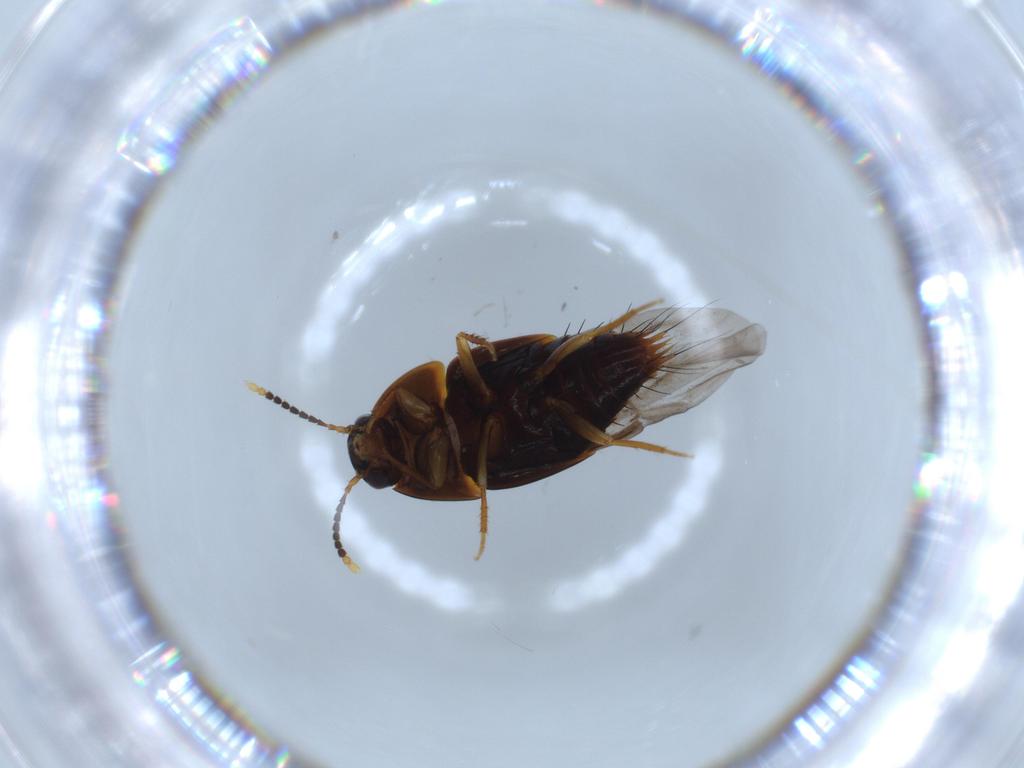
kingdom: Animalia
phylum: Arthropoda
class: Insecta
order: Coleoptera
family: Staphylinidae
